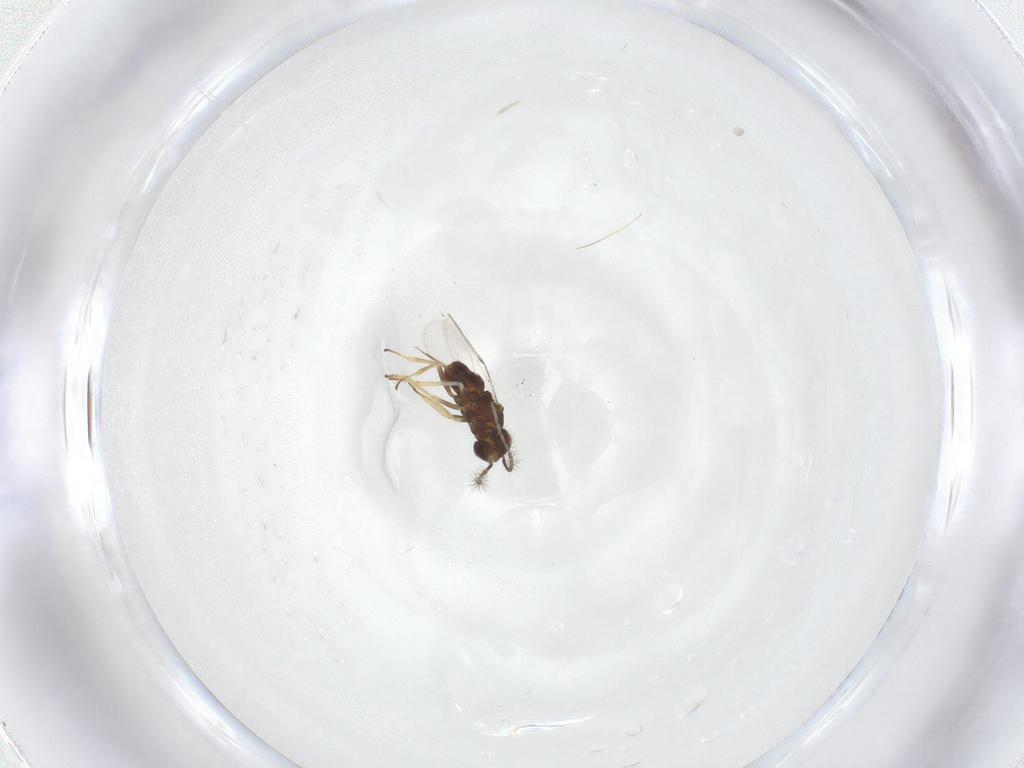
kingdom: Animalia
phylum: Arthropoda
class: Insecta
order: Hymenoptera
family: Encyrtidae
